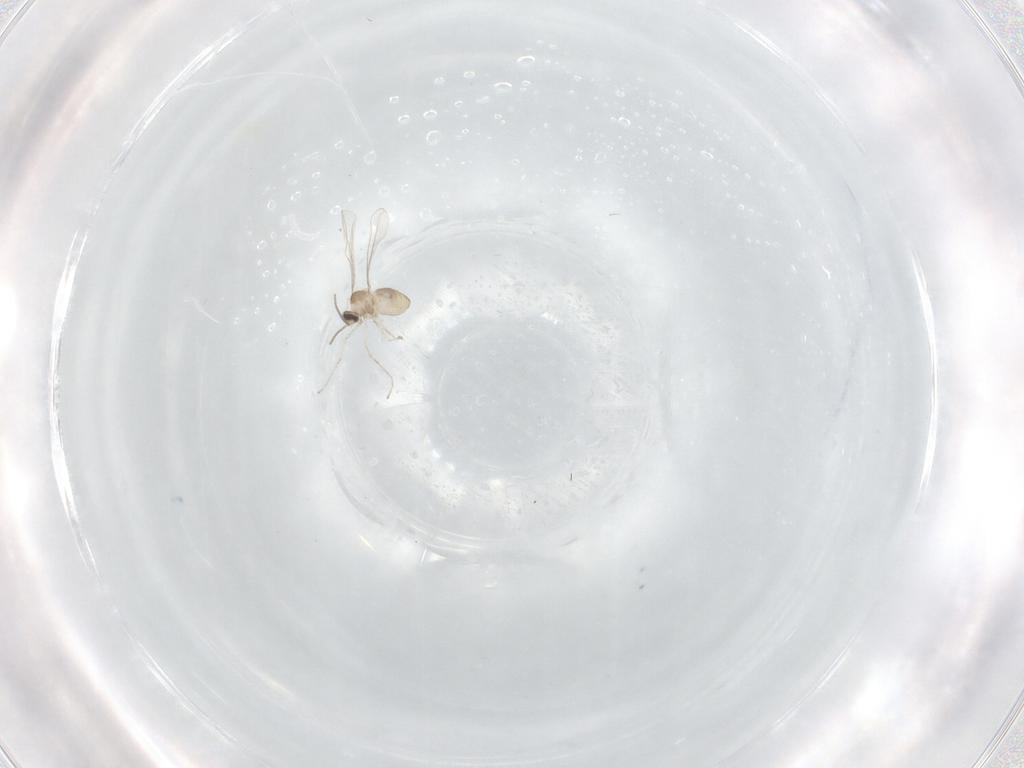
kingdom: Animalia
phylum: Arthropoda
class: Insecta
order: Diptera
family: Cecidomyiidae
